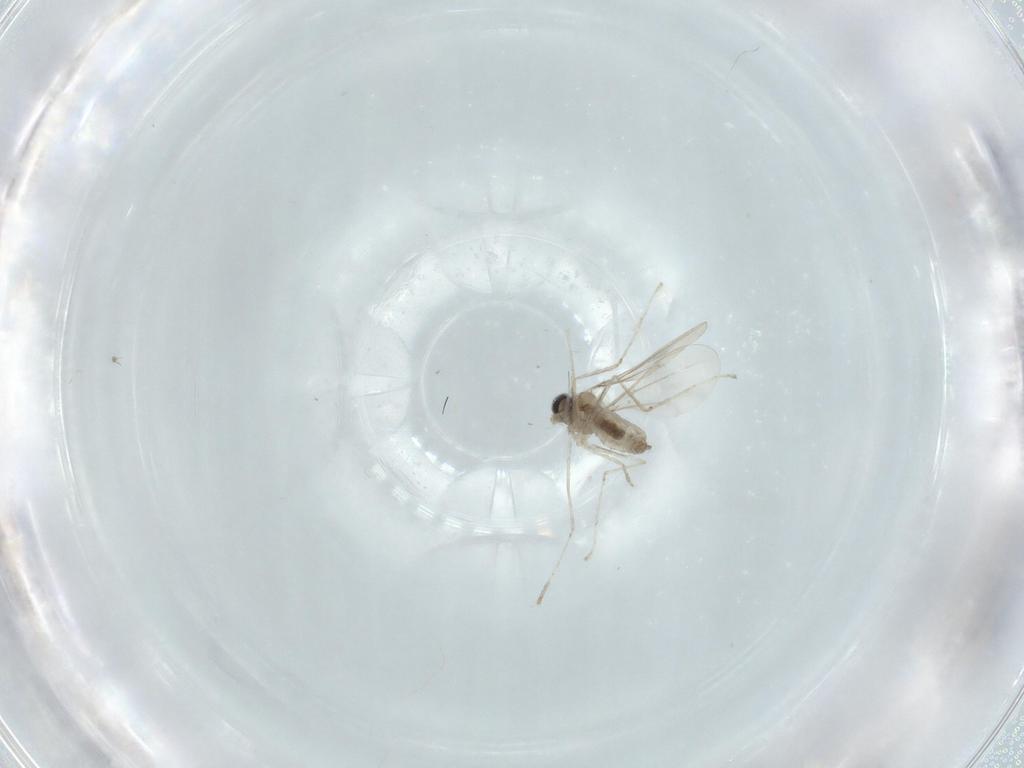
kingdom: Animalia
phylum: Arthropoda
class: Insecta
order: Diptera
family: Cecidomyiidae
